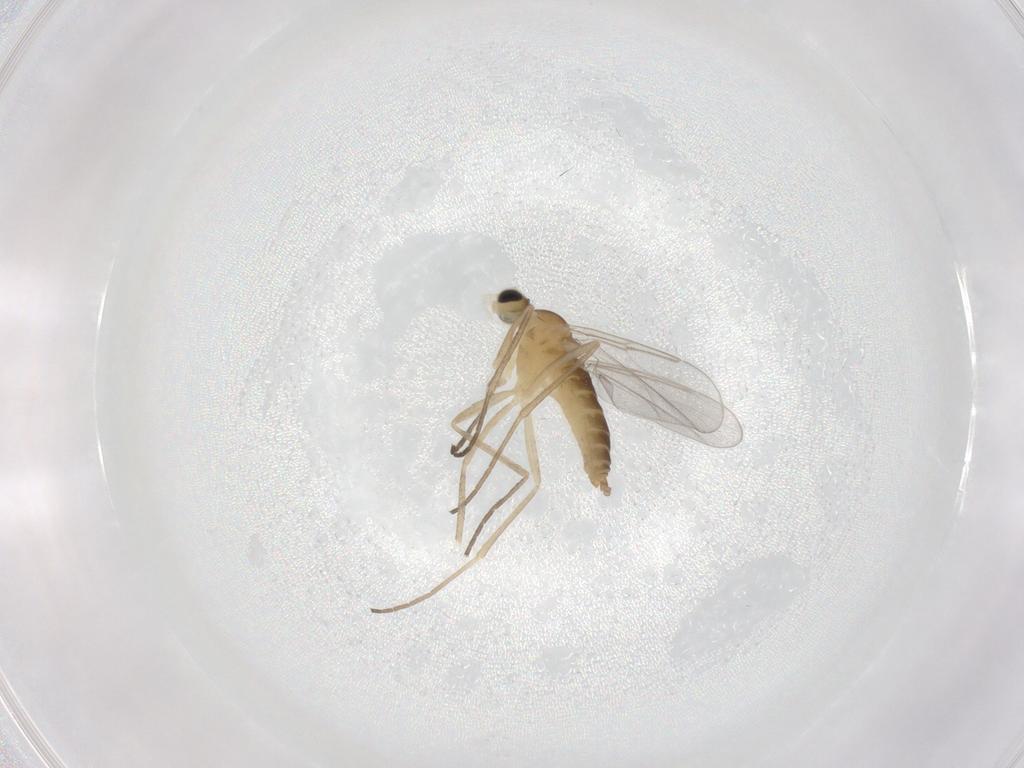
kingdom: Animalia
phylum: Arthropoda
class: Insecta
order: Diptera
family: Cecidomyiidae
